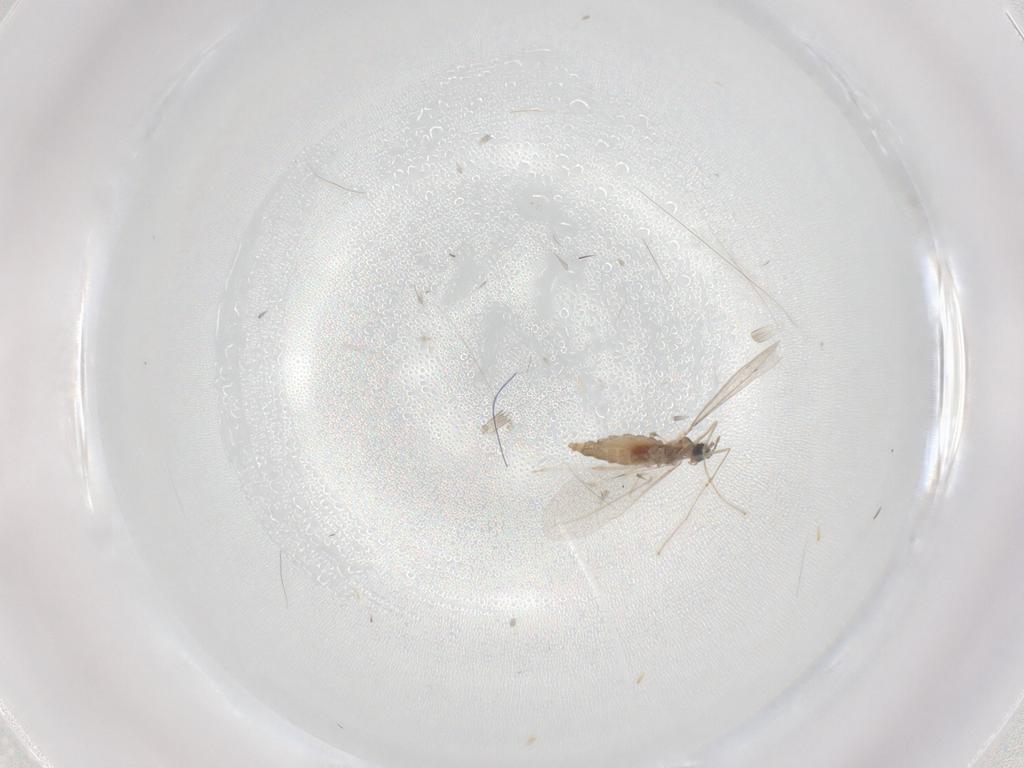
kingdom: Animalia
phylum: Arthropoda
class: Insecta
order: Diptera
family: Cecidomyiidae
